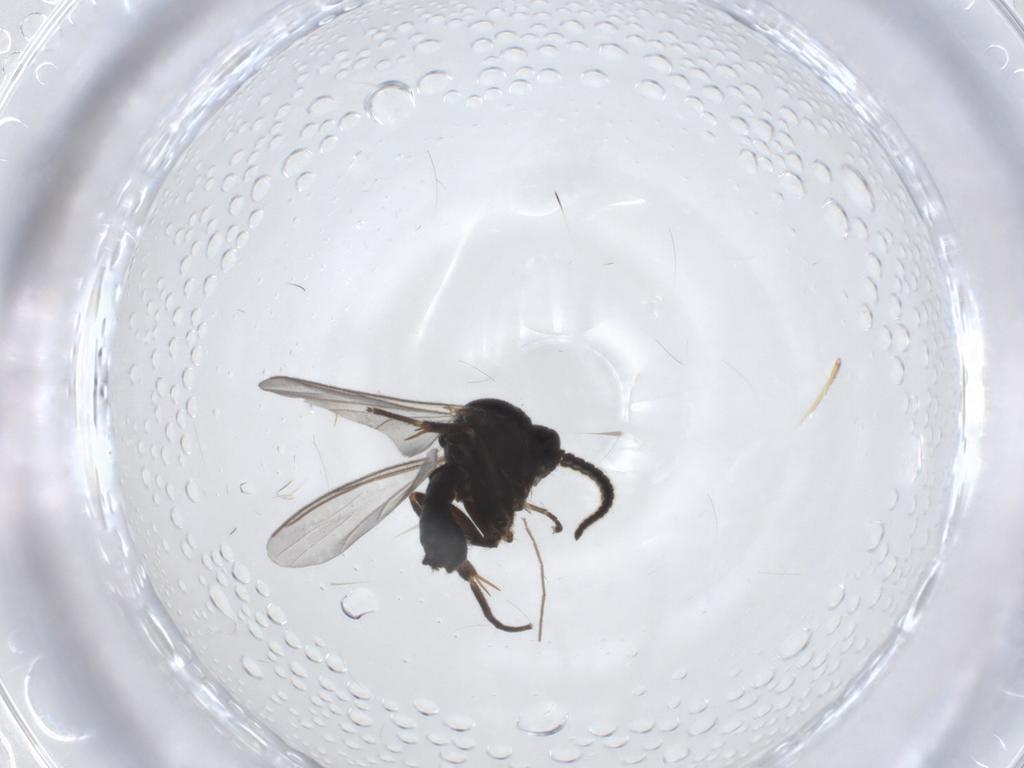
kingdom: Animalia
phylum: Arthropoda
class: Insecta
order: Diptera
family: Mycetophilidae
